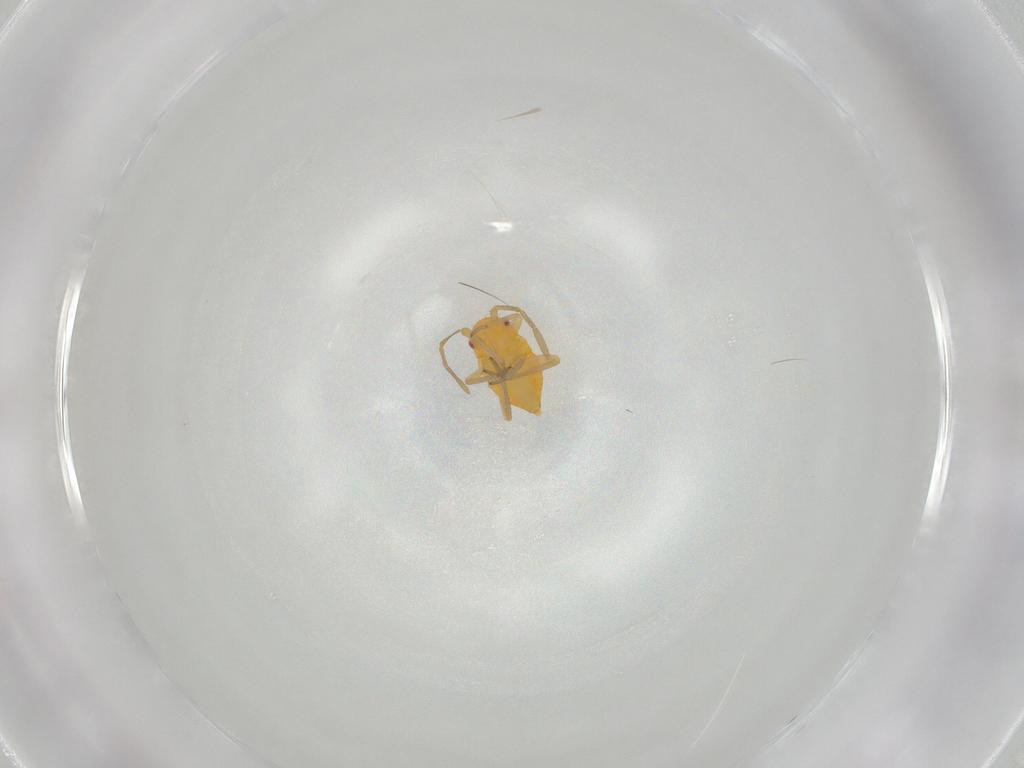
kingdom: Animalia
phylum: Arthropoda
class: Insecta
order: Hemiptera
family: Miridae
